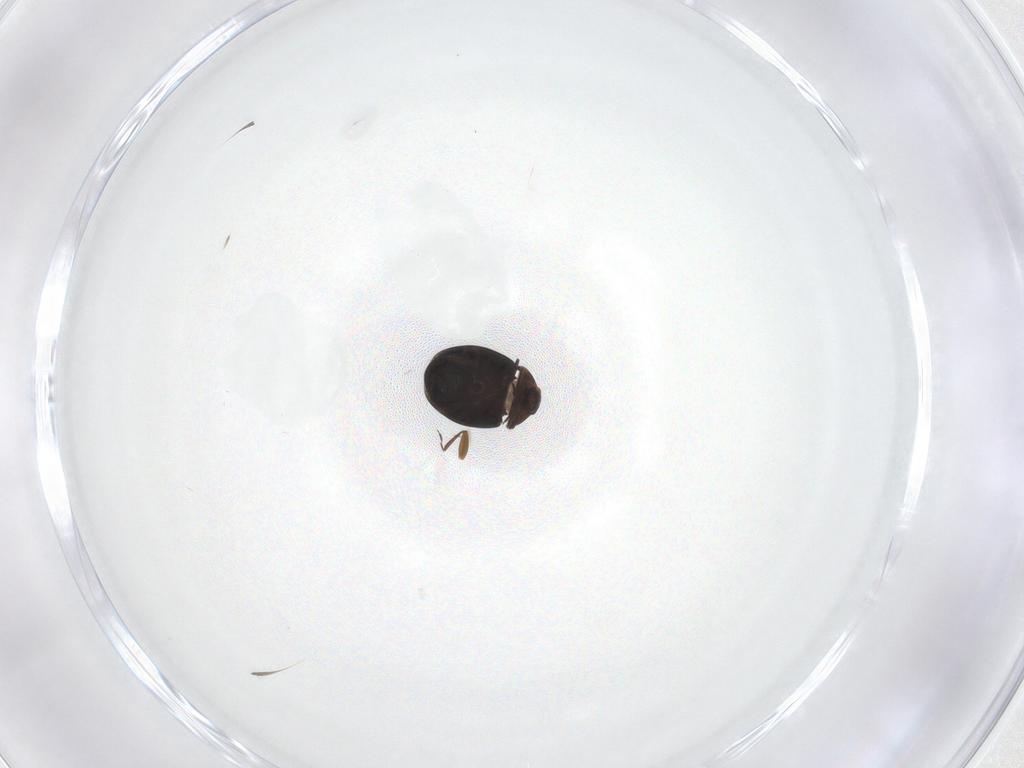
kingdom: Animalia
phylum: Arthropoda
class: Insecta
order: Coleoptera
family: Corylophidae
